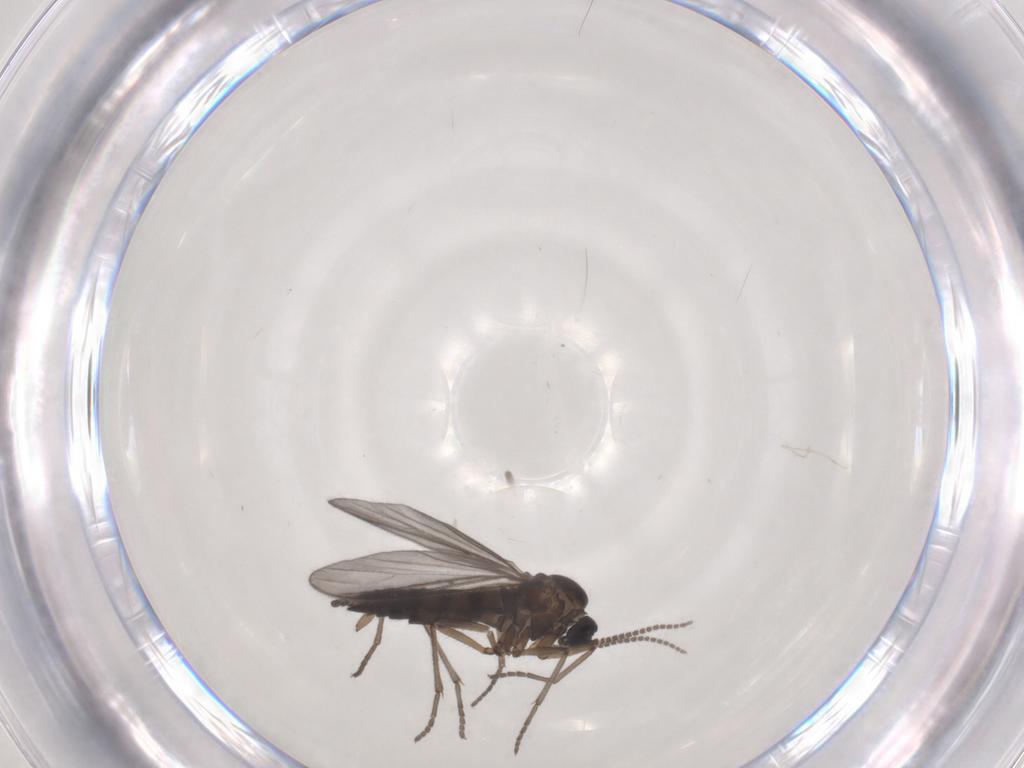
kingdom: Animalia
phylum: Arthropoda
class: Insecta
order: Diptera
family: Sciaridae
